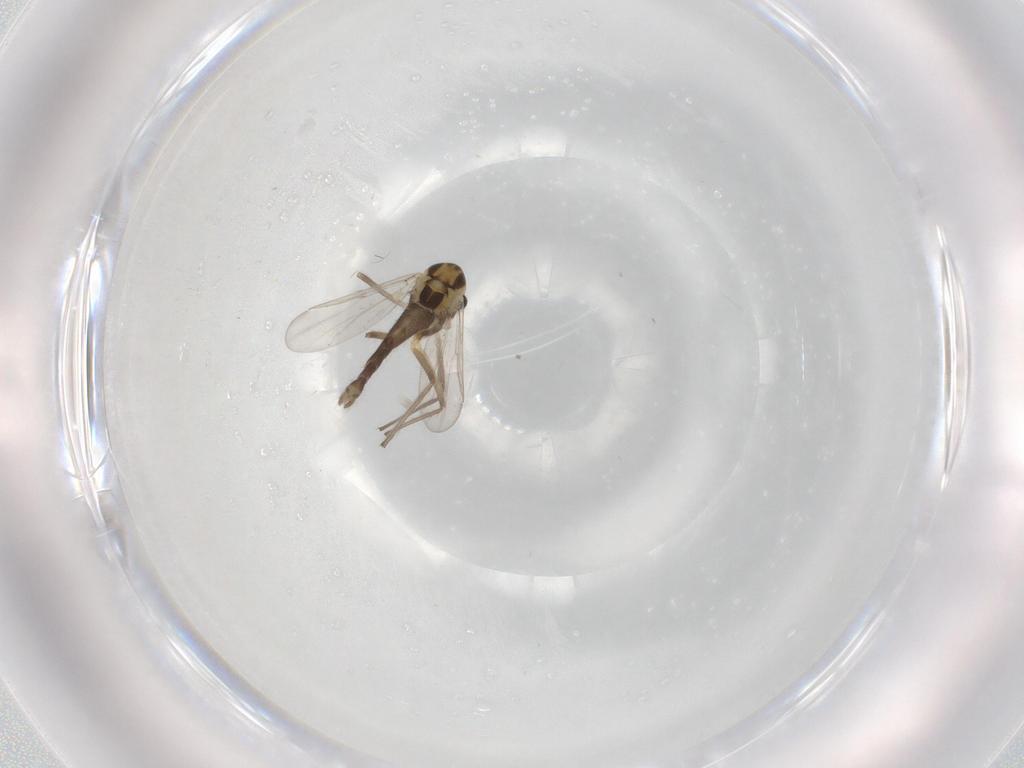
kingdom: Animalia
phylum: Arthropoda
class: Insecta
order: Diptera
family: Chironomidae
